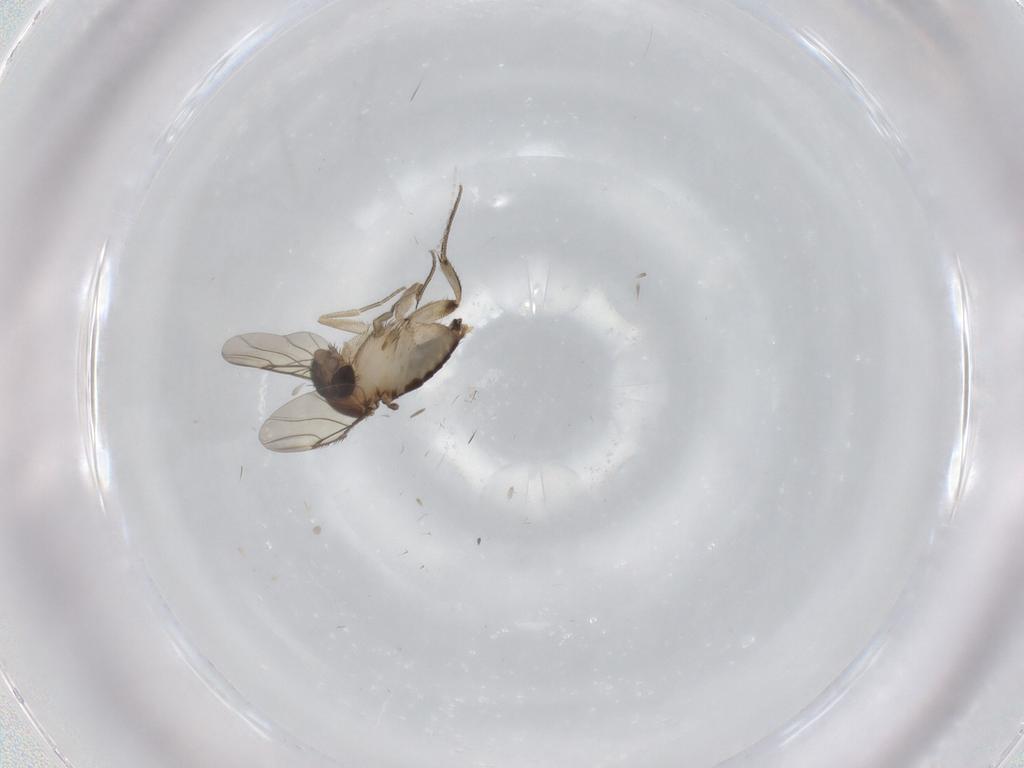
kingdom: Animalia
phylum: Arthropoda
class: Insecta
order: Diptera
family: Phoridae
